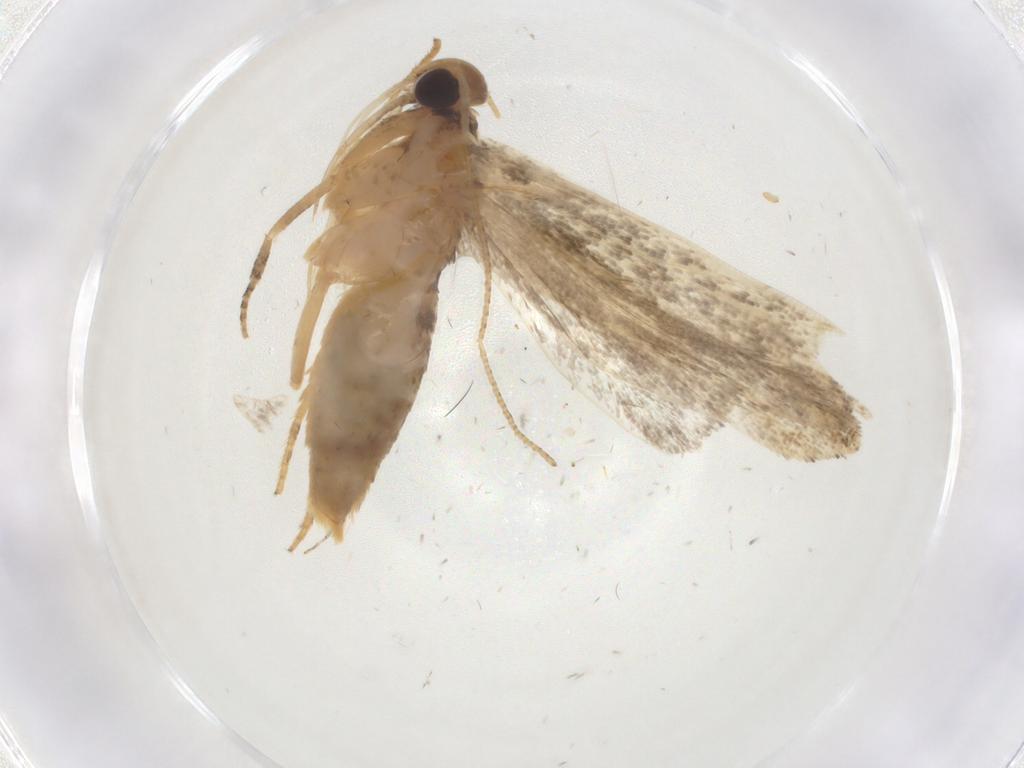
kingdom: Animalia
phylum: Arthropoda
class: Insecta
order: Lepidoptera
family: Gelechiidae
